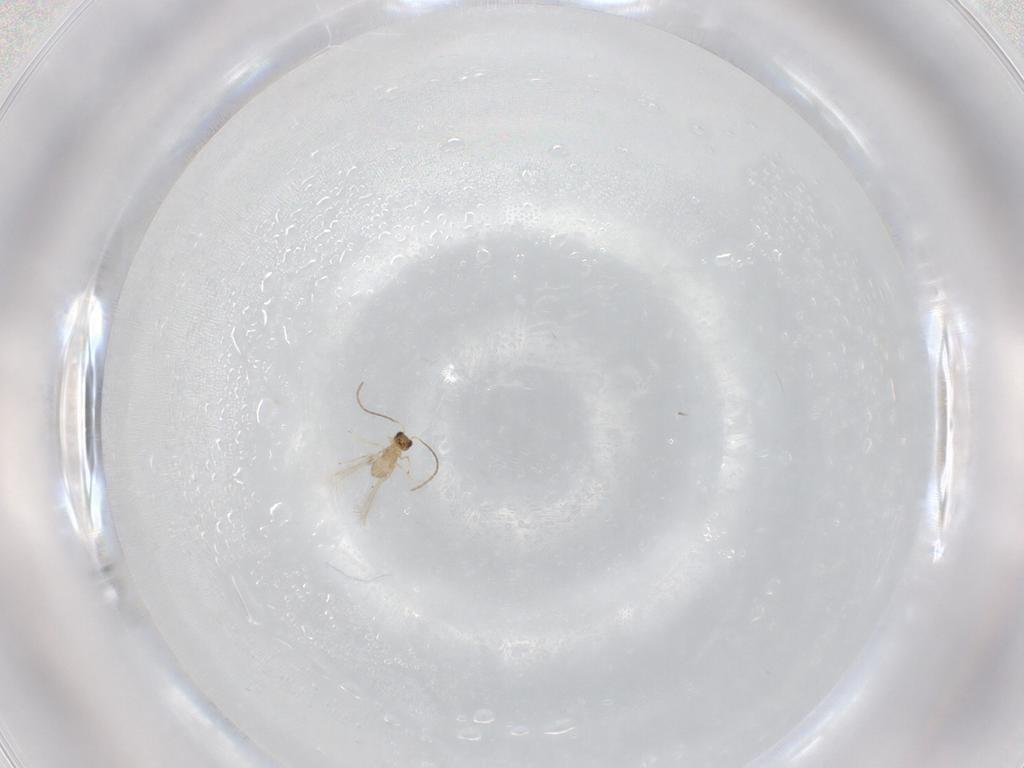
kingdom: Animalia
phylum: Arthropoda
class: Insecta
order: Hymenoptera
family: Mymaridae
